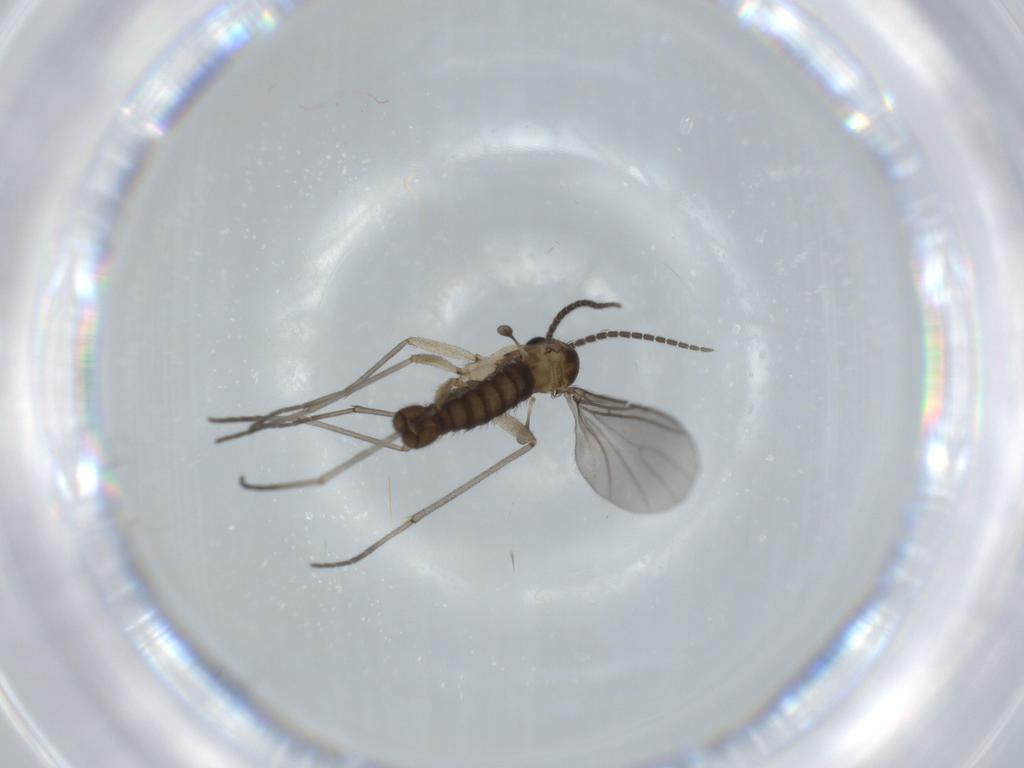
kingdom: Animalia
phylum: Arthropoda
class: Insecta
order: Diptera
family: Sciaridae
